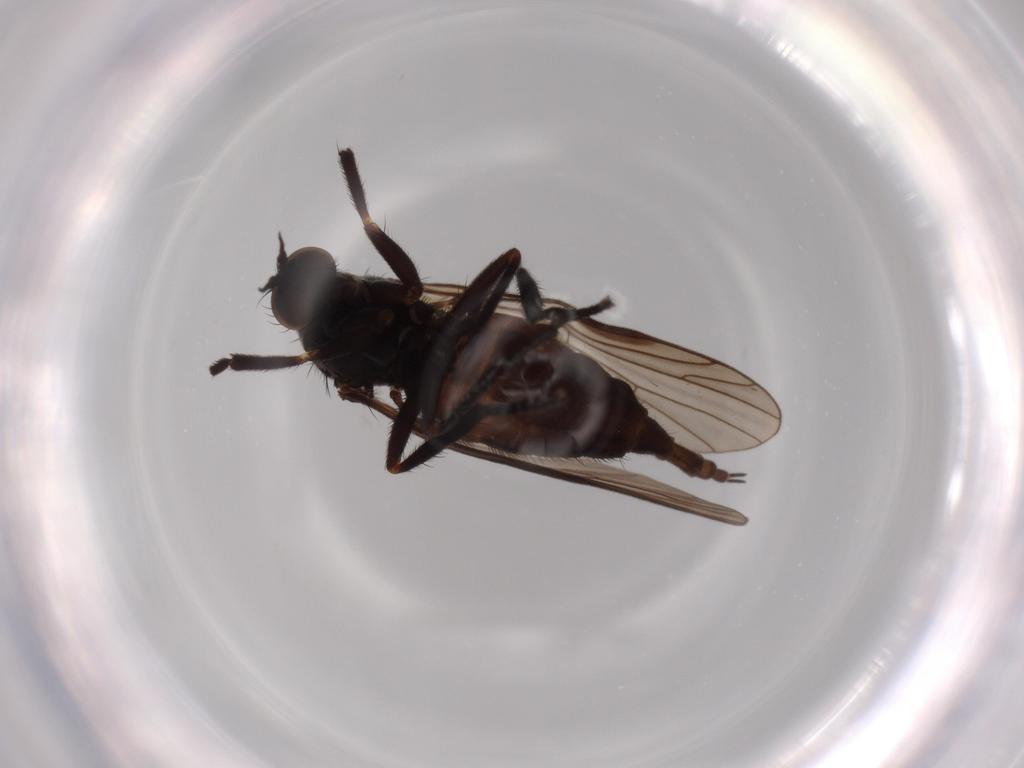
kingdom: Animalia
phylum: Arthropoda
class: Insecta
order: Diptera
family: Empididae
